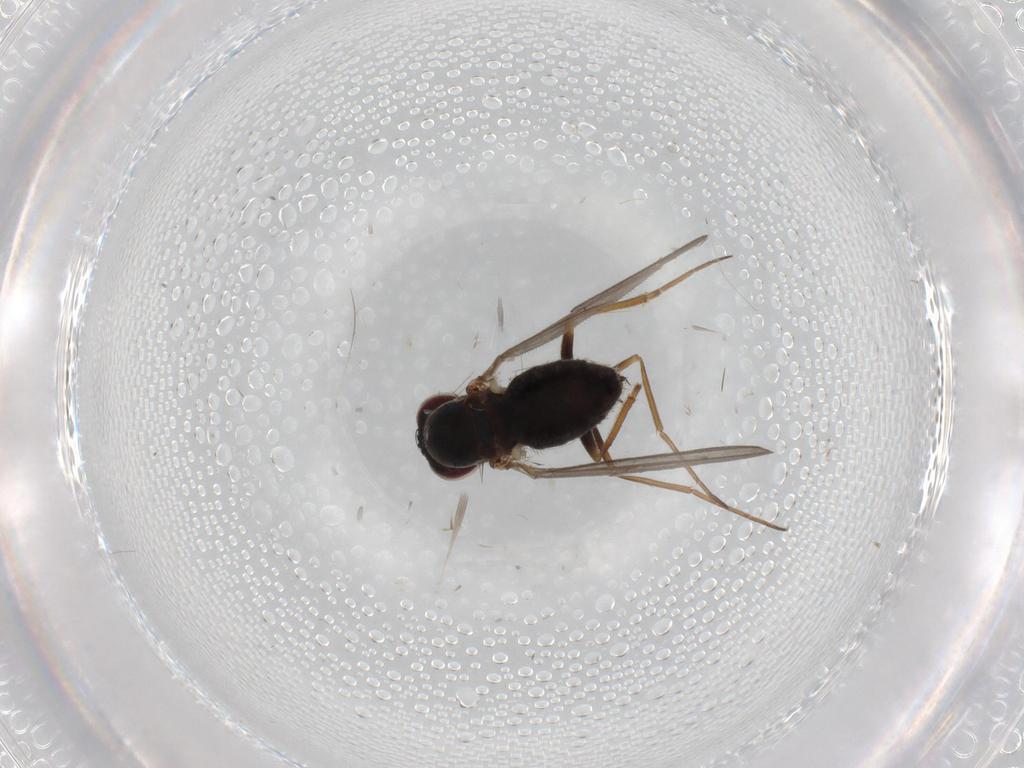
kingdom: Animalia
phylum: Arthropoda
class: Insecta
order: Diptera
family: Dolichopodidae
